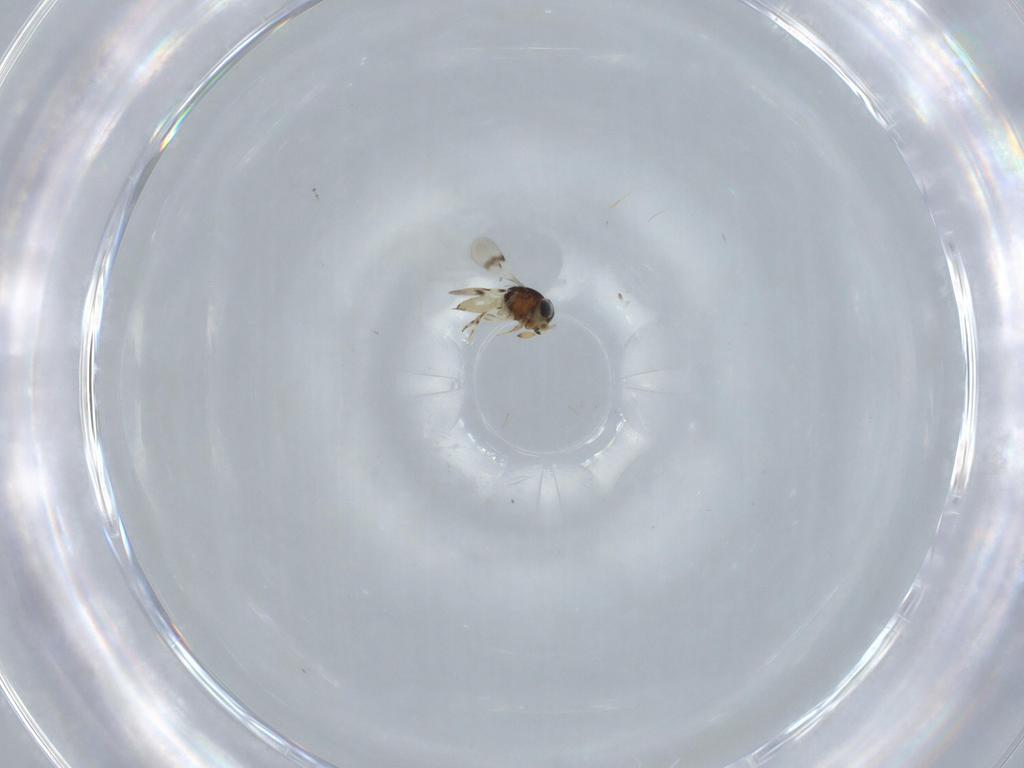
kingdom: Animalia
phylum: Arthropoda
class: Insecta
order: Hymenoptera
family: Scelionidae
